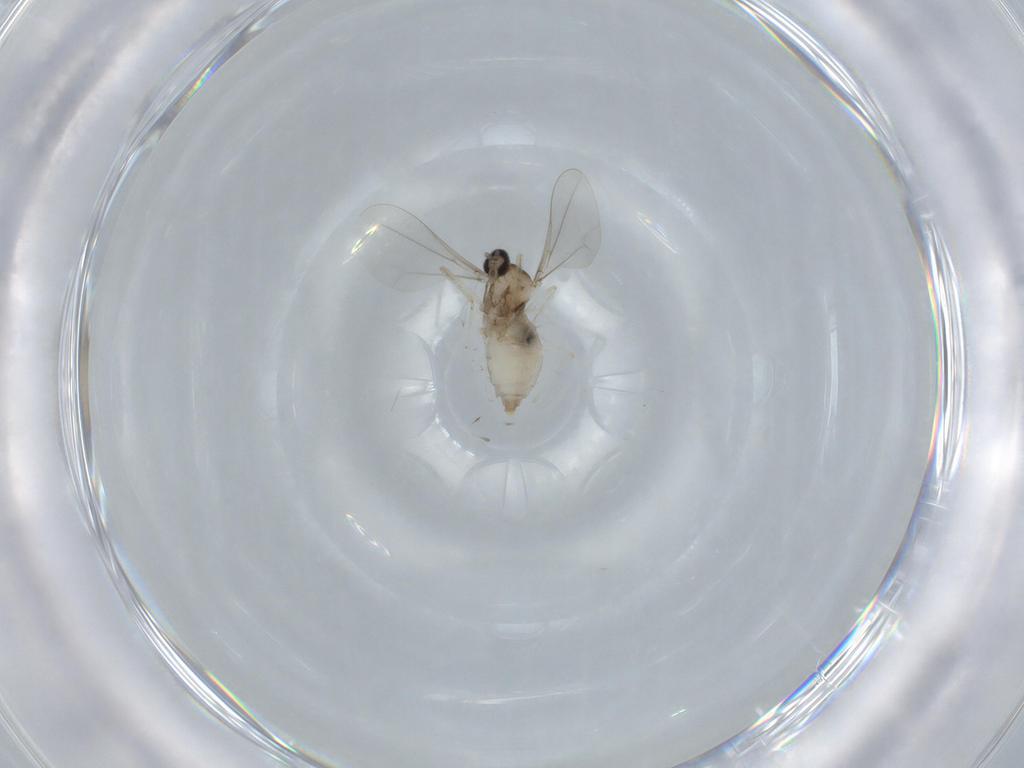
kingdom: Animalia
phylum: Arthropoda
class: Insecta
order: Diptera
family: Cecidomyiidae
